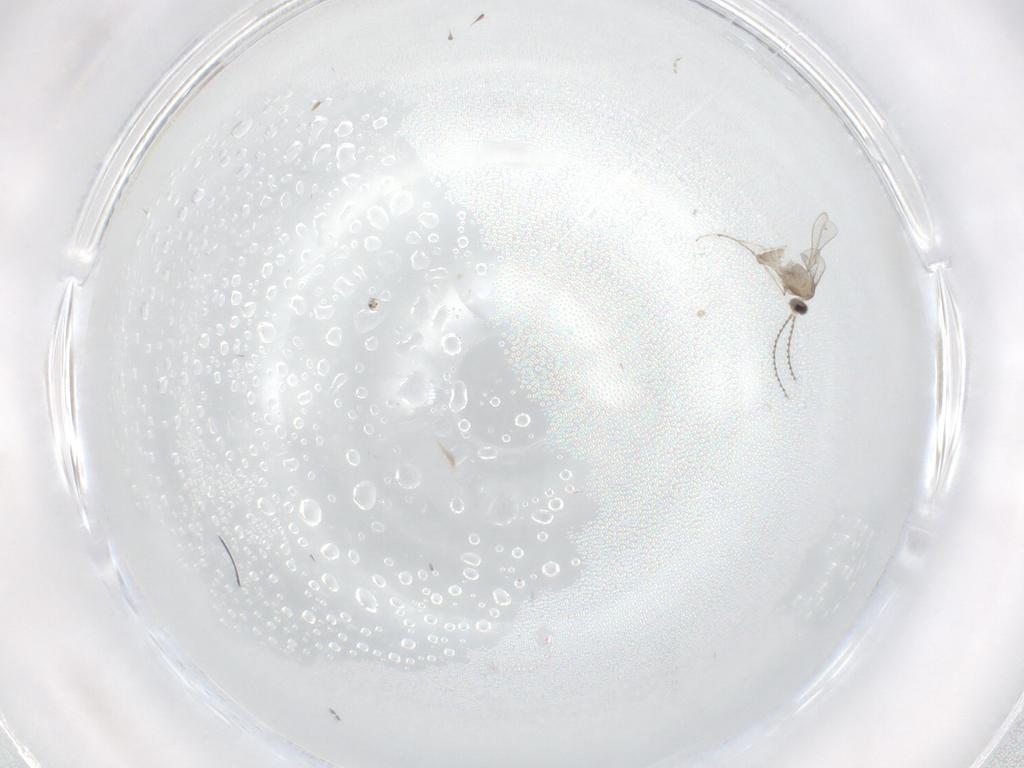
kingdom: Animalia
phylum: Arthropoda
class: Insecta
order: Diptera
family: Cecidomyiidae
